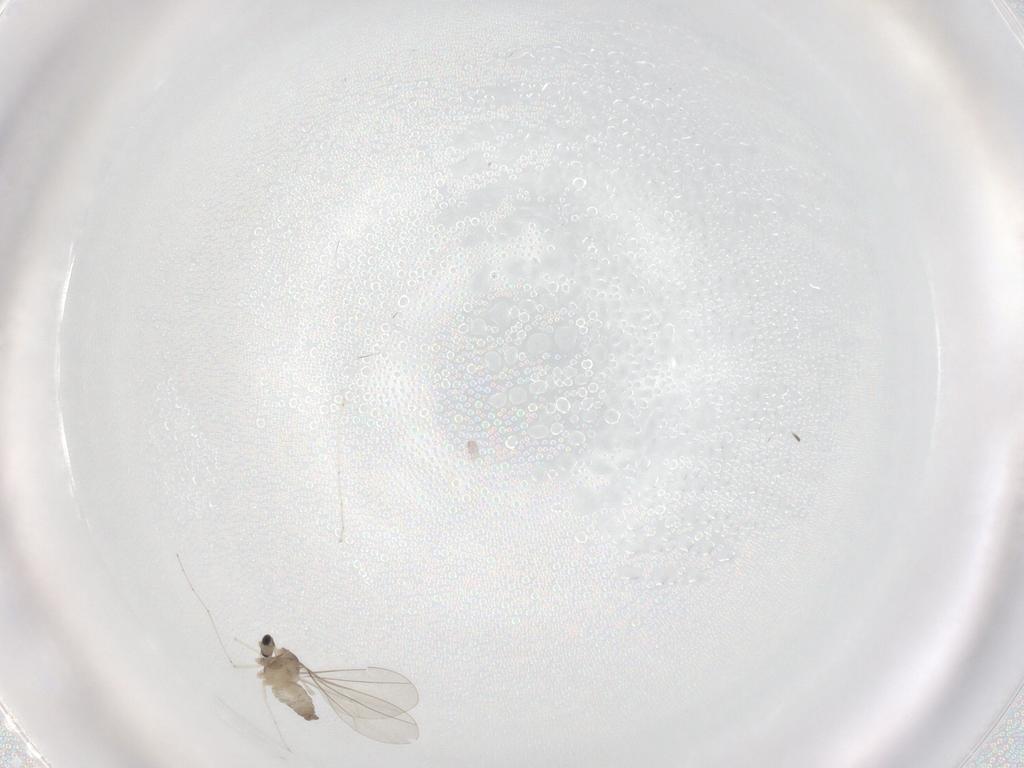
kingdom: Animalia
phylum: Arthropoda
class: Insecta
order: Diptera
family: Cecidomyiidae
